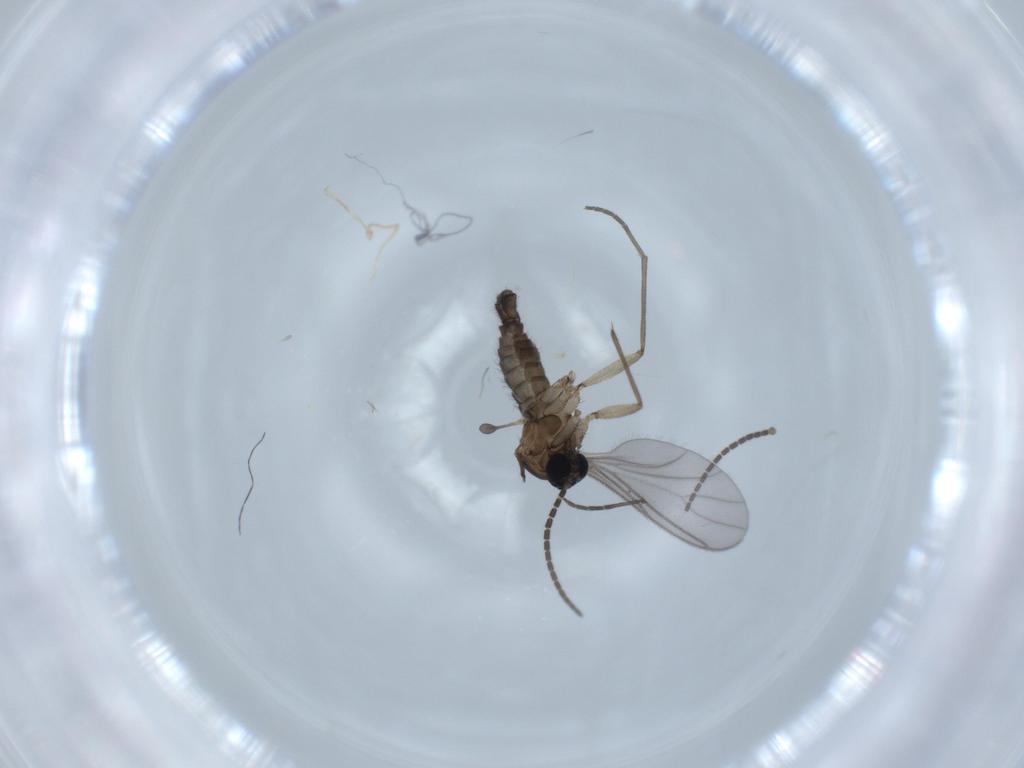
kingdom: Animalia
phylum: Arthropoda
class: Insecta
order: Diptera
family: Sciaridae
